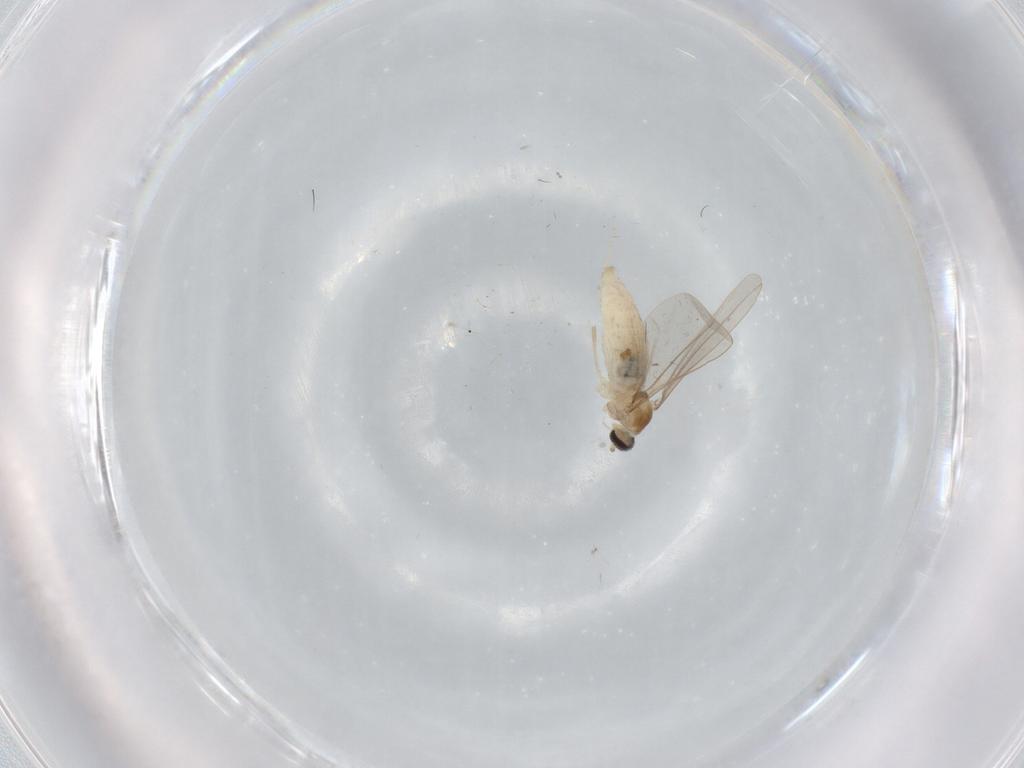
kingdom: Animalia
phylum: Arthropoda
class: Insecta
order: Diptera
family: Cecidomyiidae
